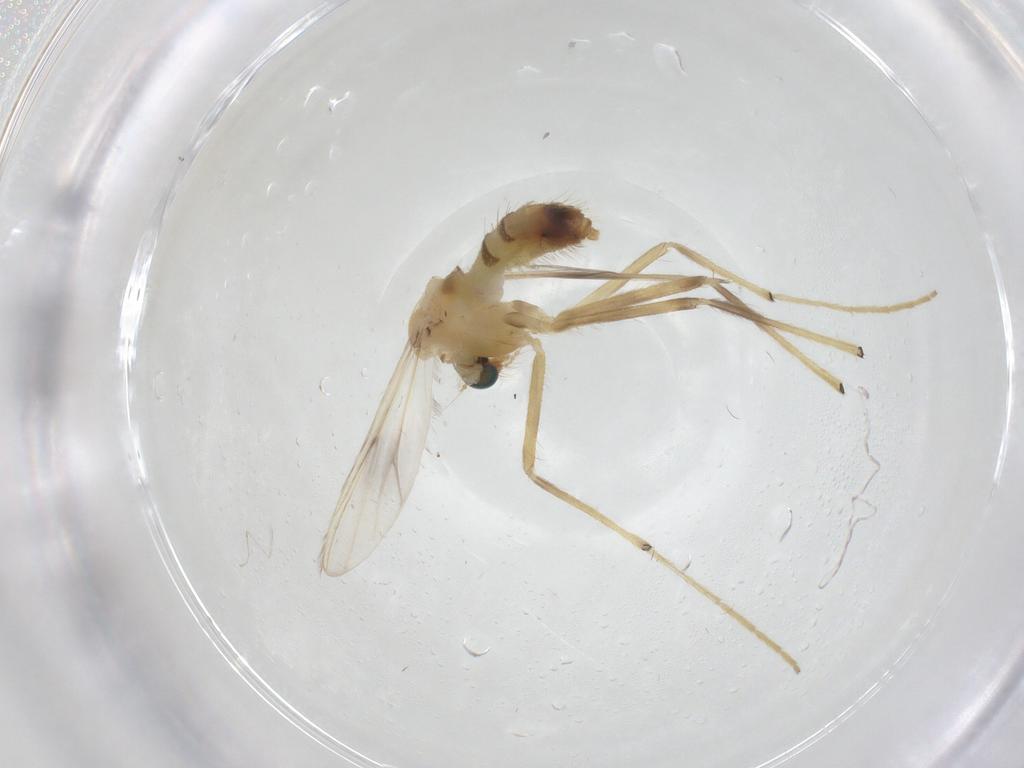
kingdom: Animalia
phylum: Arthropoda
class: Insecta
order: Diptera
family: Chironomidae
